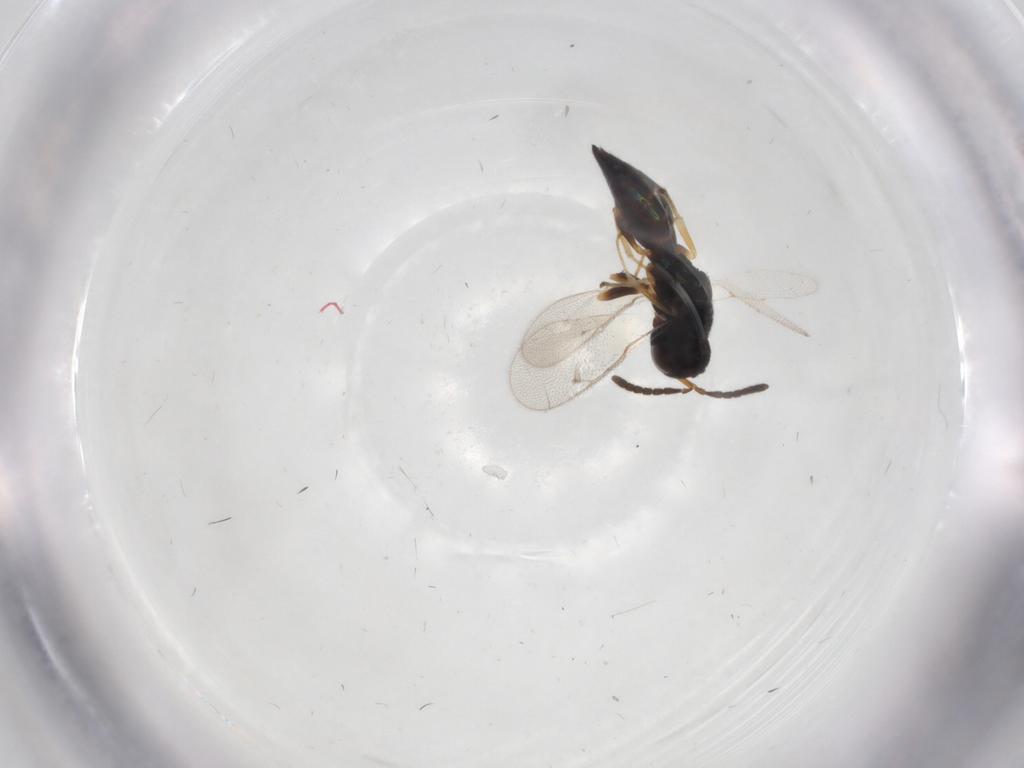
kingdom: Animalia
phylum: Arthropoda
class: Insecta
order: Hymenoptera
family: Pteromalidae
